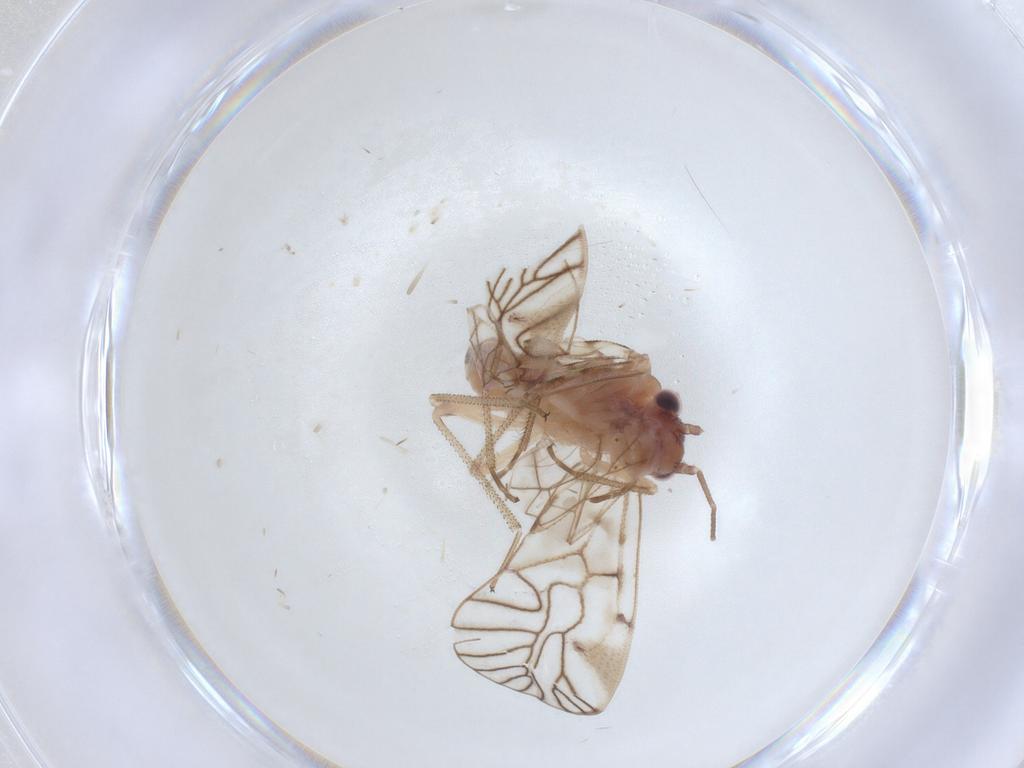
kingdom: Animalia
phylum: Arthropoda
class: Insecta
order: Psocodea
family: Amphipsocidae
